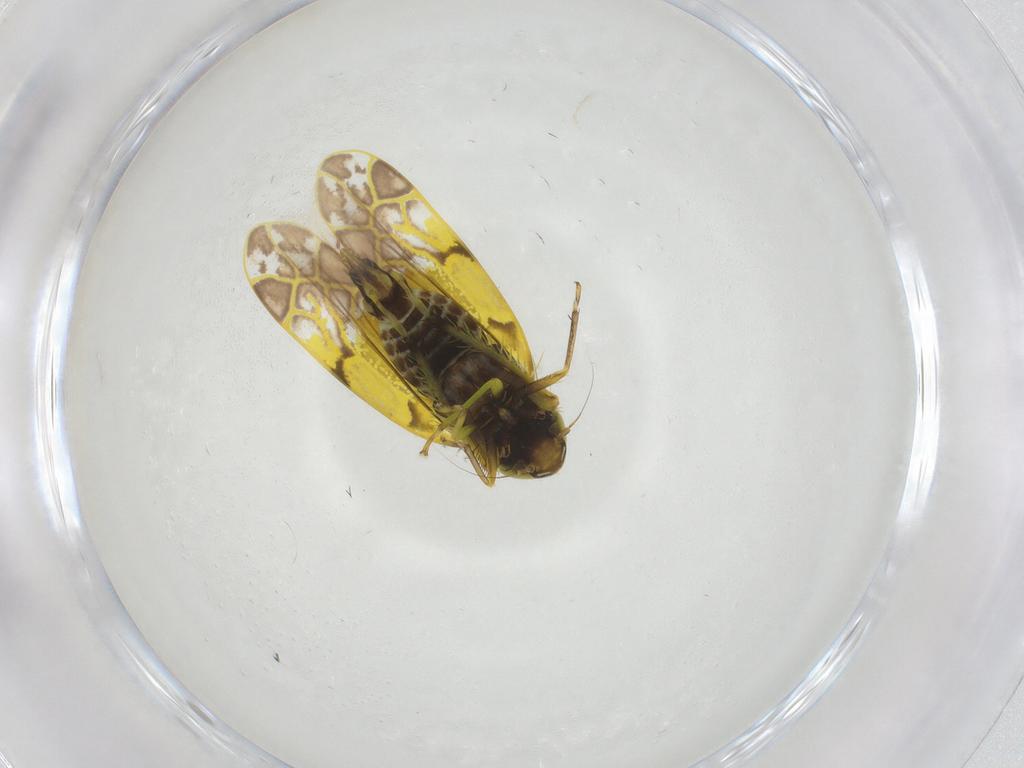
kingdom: Animalia
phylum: Arthropoda
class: Insecta
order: Hemiptera
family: Cicadellidae
